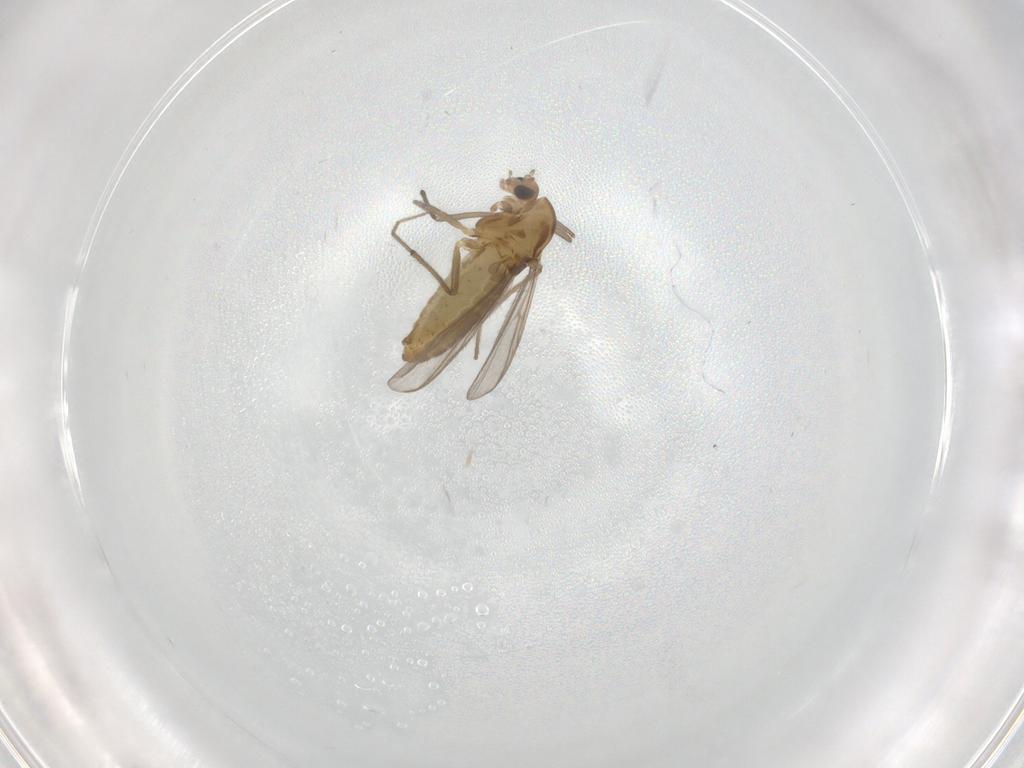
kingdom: Animalia
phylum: Arthropoda
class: Insecta
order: Diptera
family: Chironomidae
